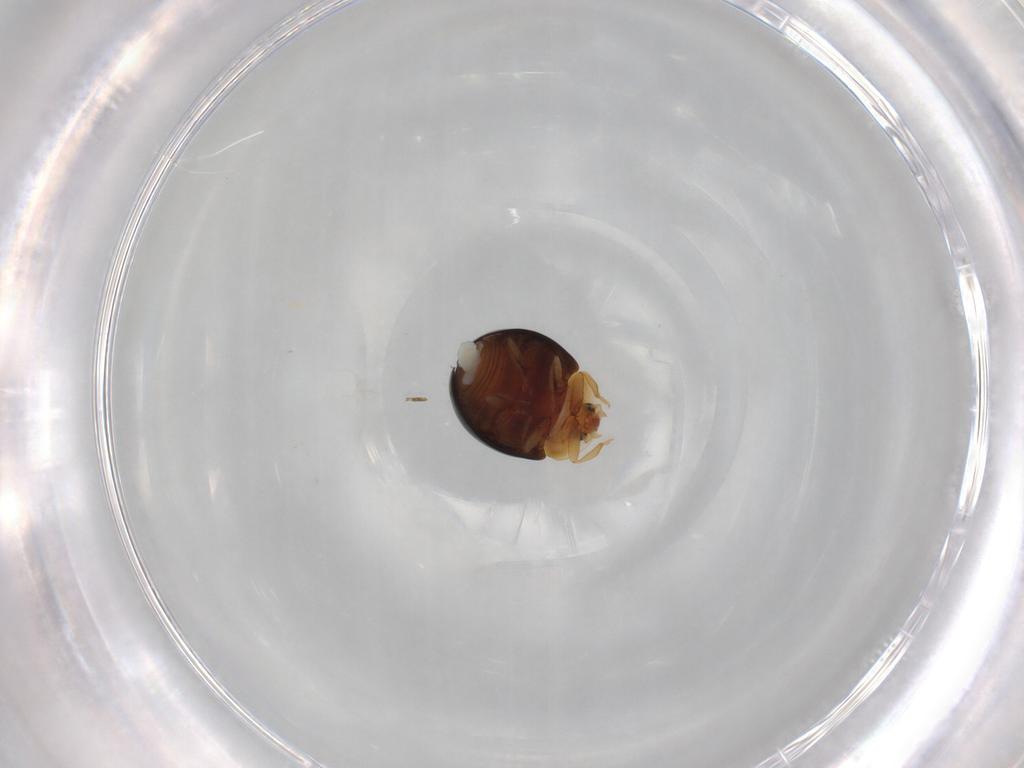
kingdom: Animalia
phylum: Arthropoda
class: Insecta
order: Coleoptera
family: Corylophidae
